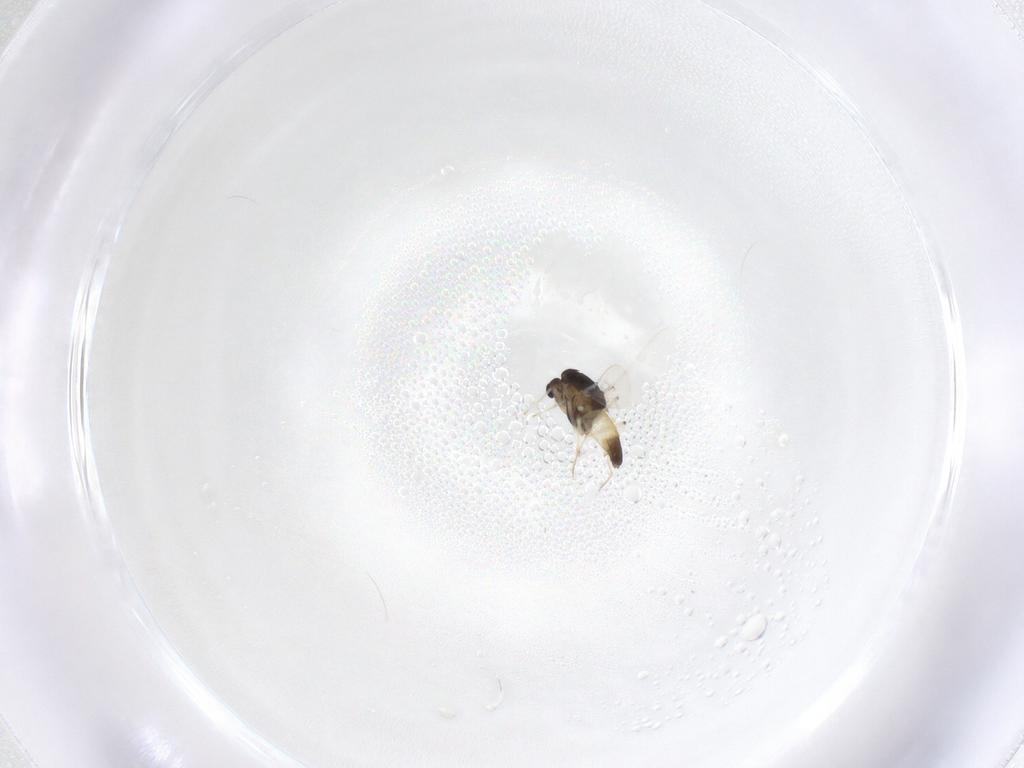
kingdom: Animalia
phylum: Arthropoda
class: Insecta
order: Diptera
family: Chironomidae
